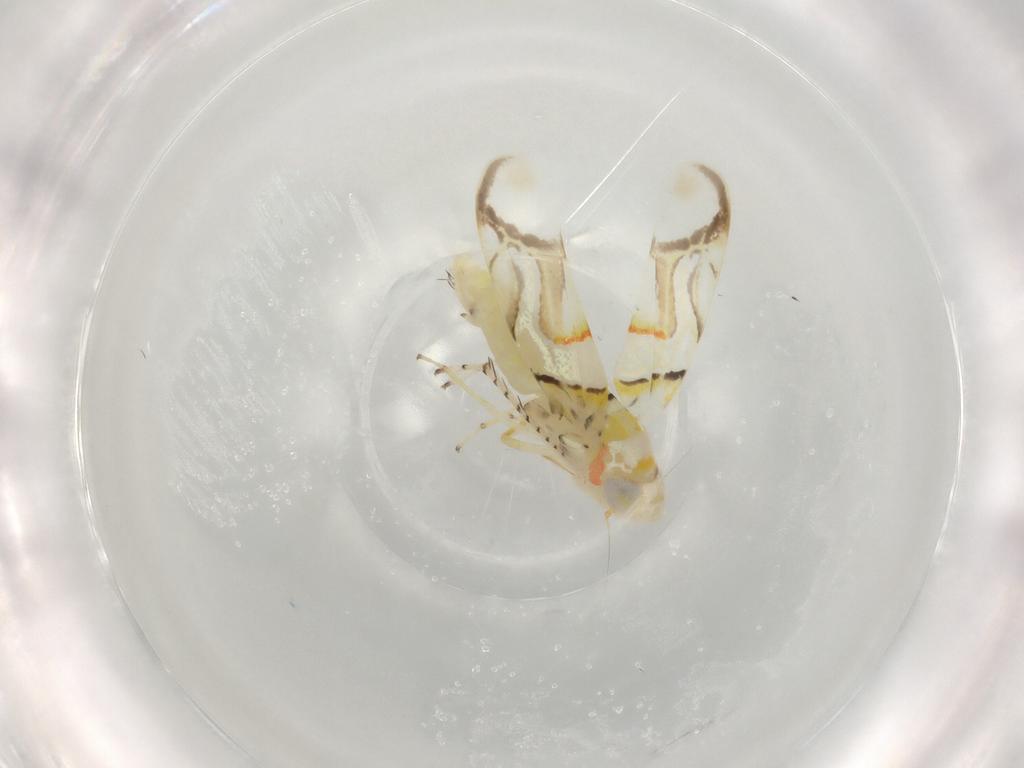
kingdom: Animalia
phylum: Arthropoda
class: Insecta
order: Hemiptera
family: Cicadellidae
